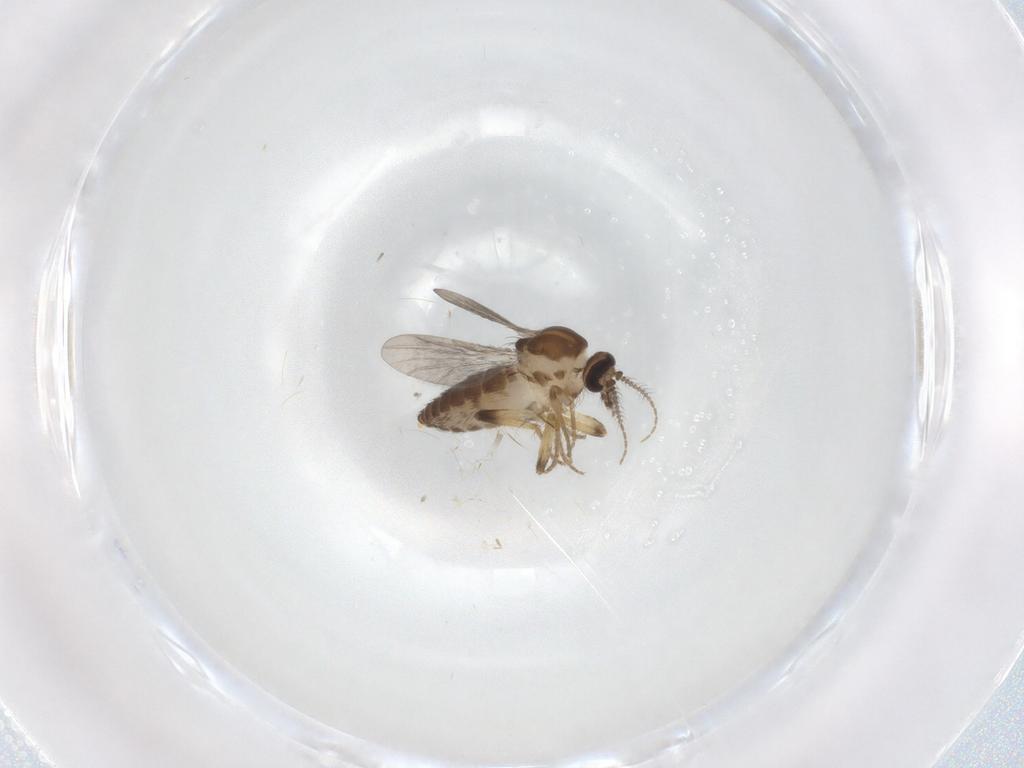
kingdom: Animalia
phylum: Arthropoda
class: Insecta
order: Diptera
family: Ceratopogonidae
